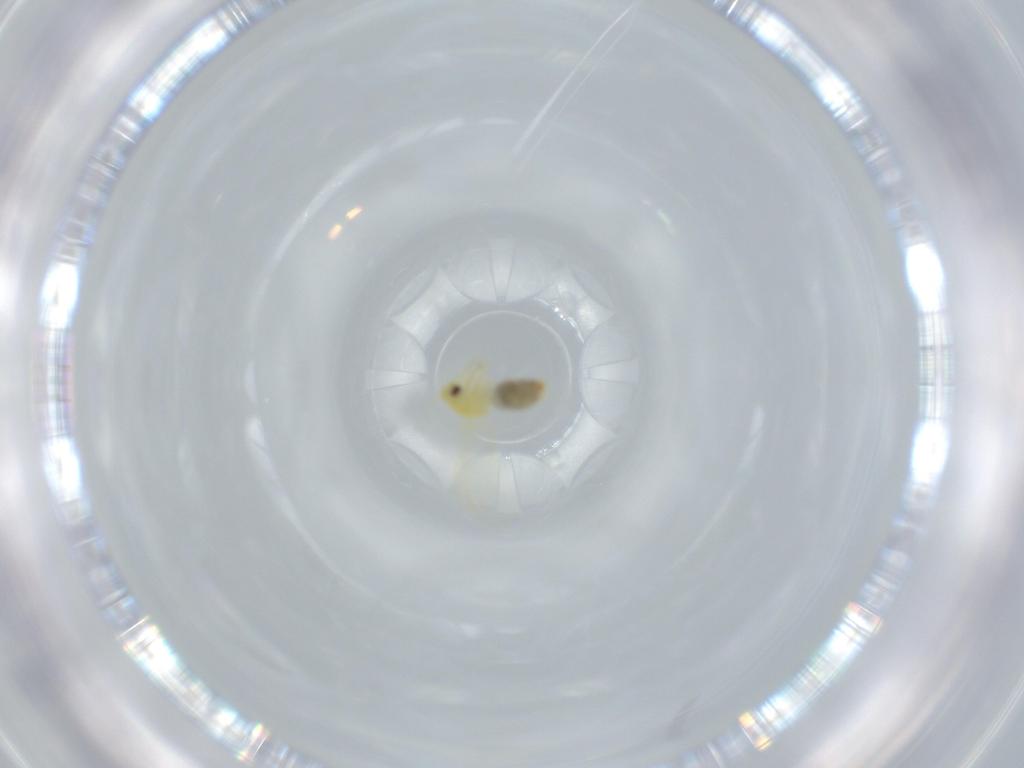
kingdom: Animalia
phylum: Arthropoda
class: Insecta
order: Hemiptera
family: Aleyrodidae
